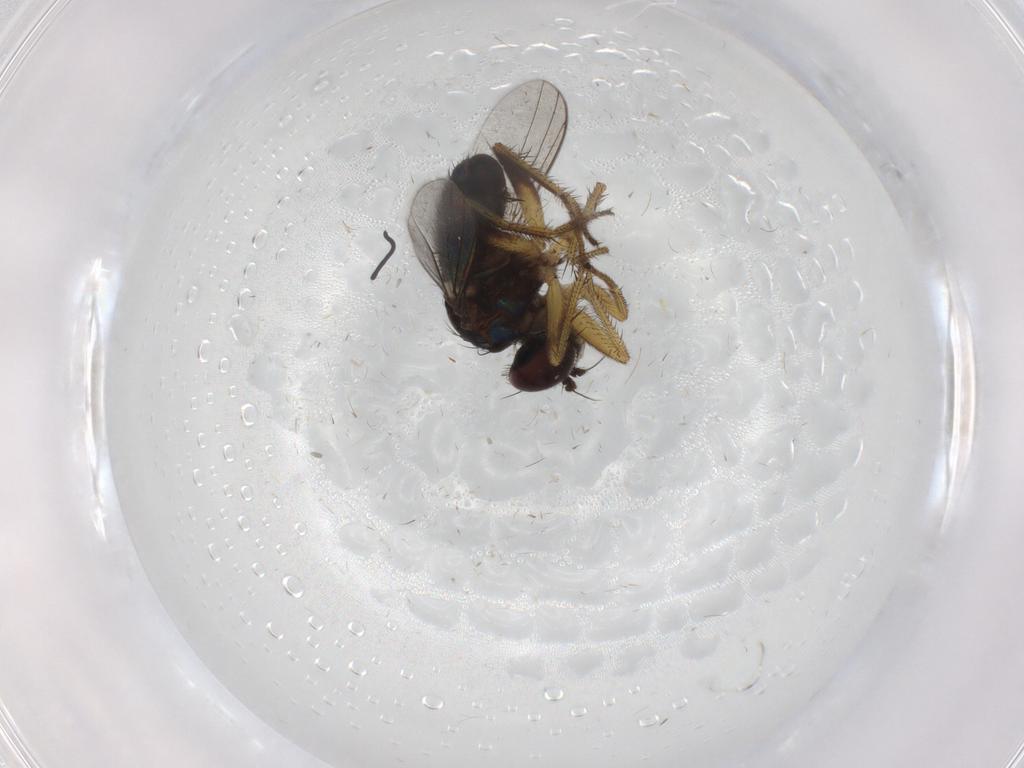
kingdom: Animalia
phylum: Arthropoda
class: Insecta
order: Diptera
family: Dolichopodidae
